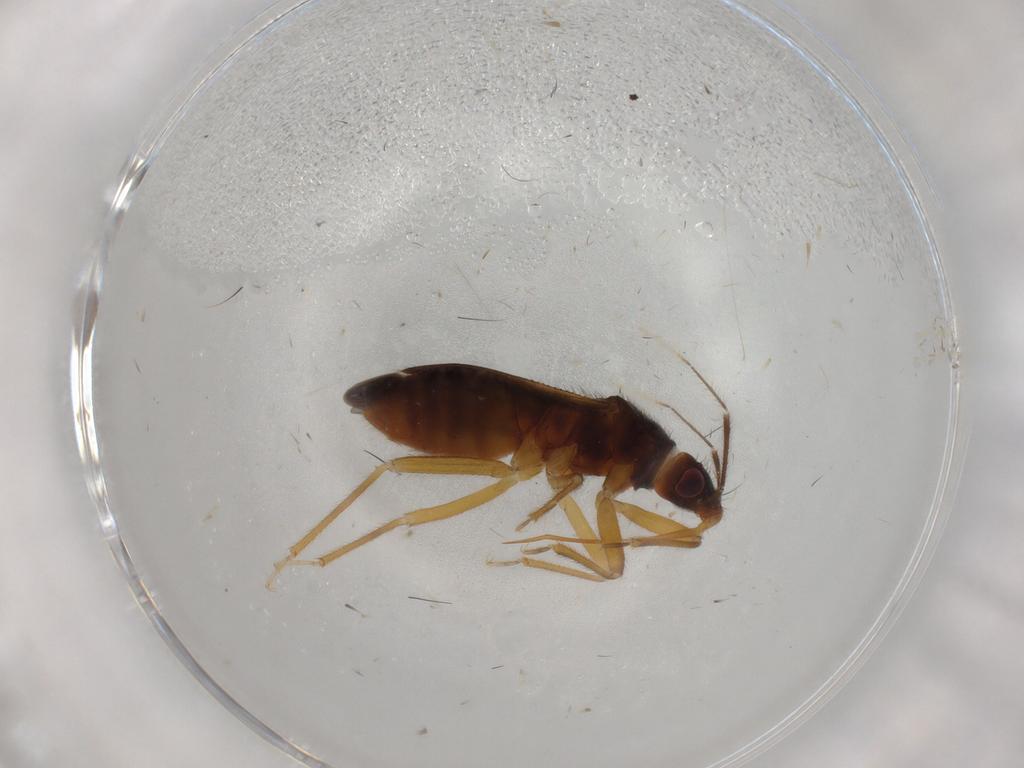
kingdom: Animalia
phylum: Arthropoda
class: Insecta
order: Hemiptera
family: Anthocoridae
